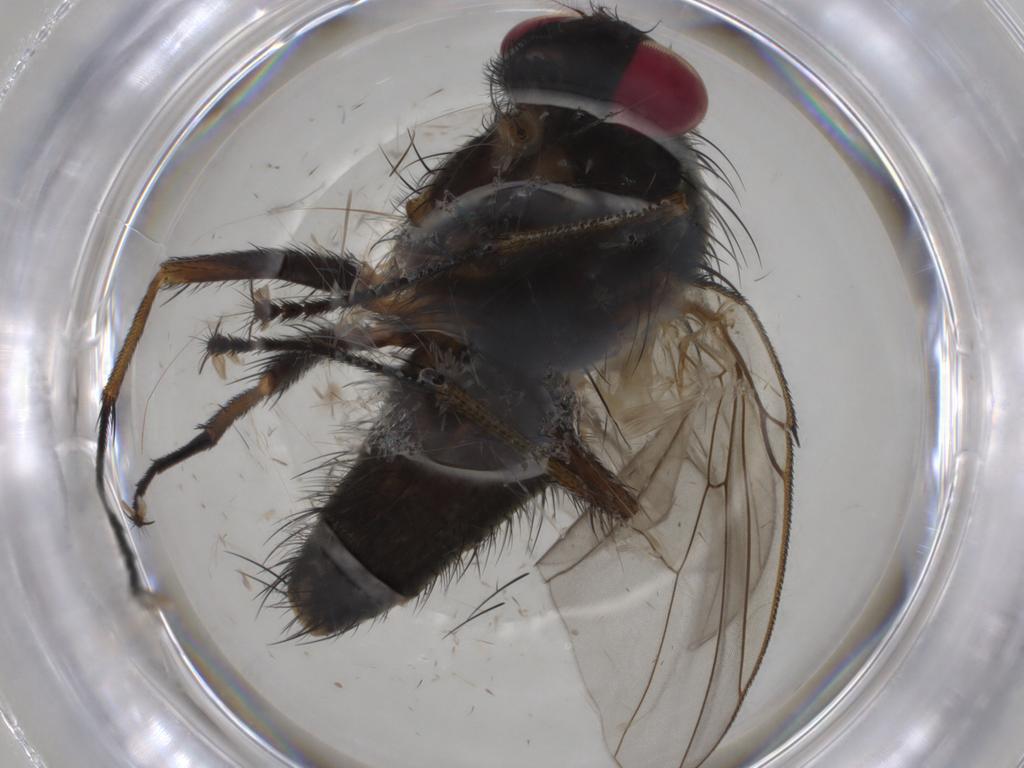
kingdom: Animalia
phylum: Arthropoda
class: Insecta
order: Diptera
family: Muscidae
